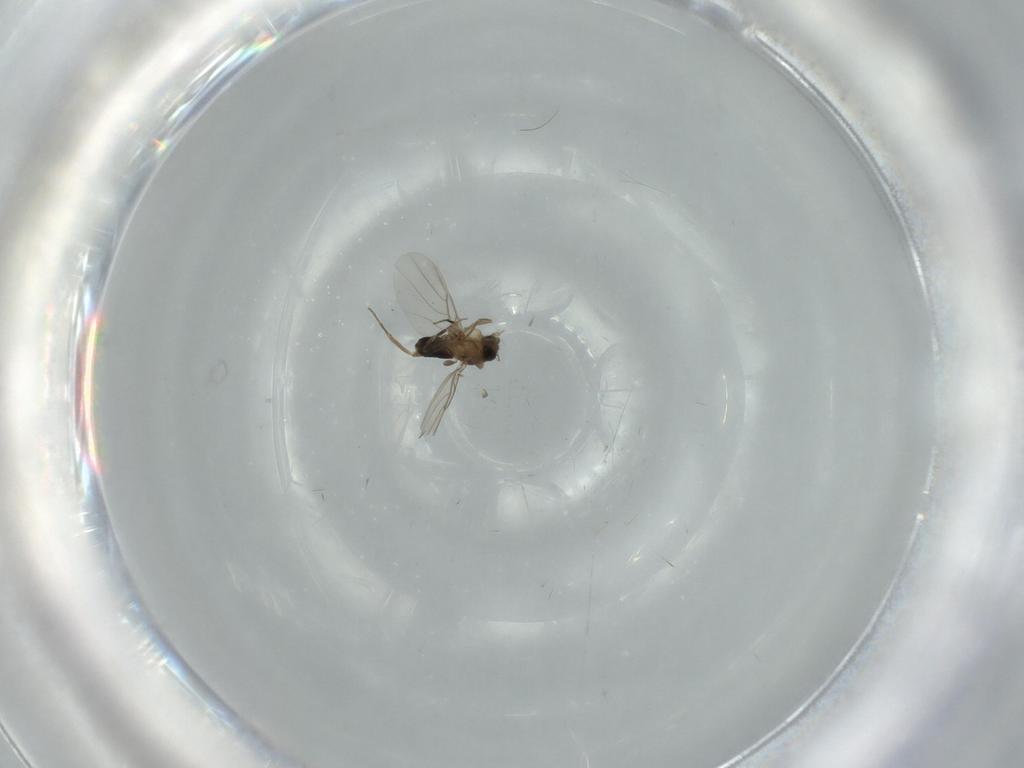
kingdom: Animalia
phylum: Arthropoda
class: Insecta
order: Diptera
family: Phoridae
